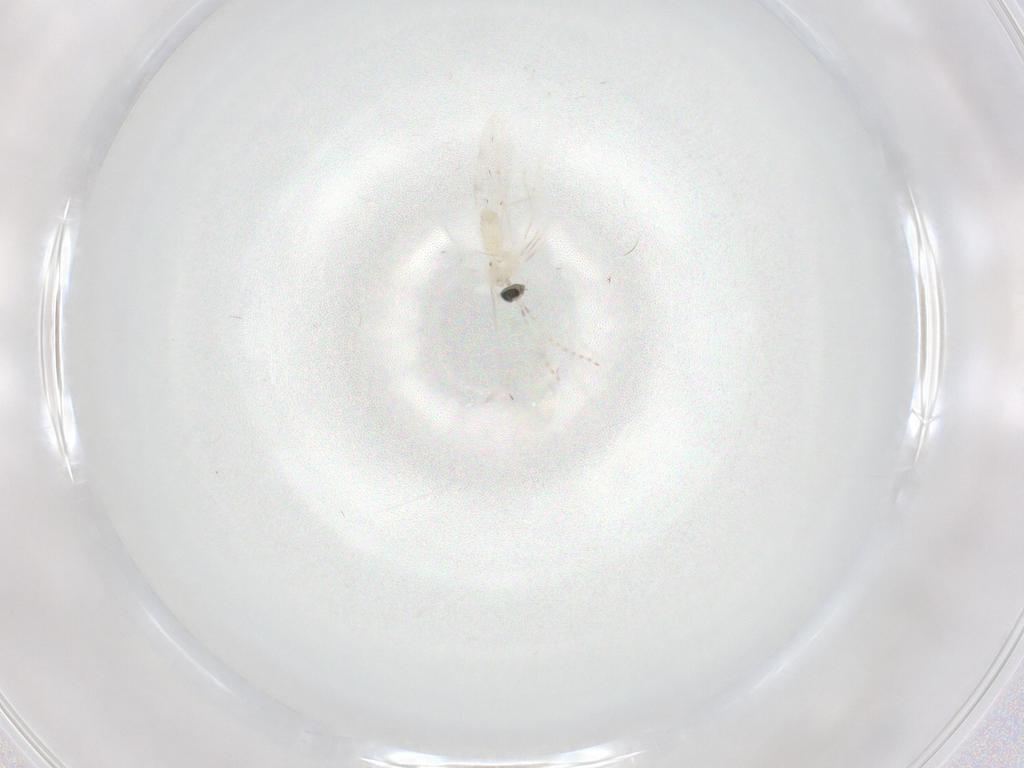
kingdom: Animalia
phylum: Arthropoda
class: Insecta
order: Diptera
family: Cecidomyiidae
